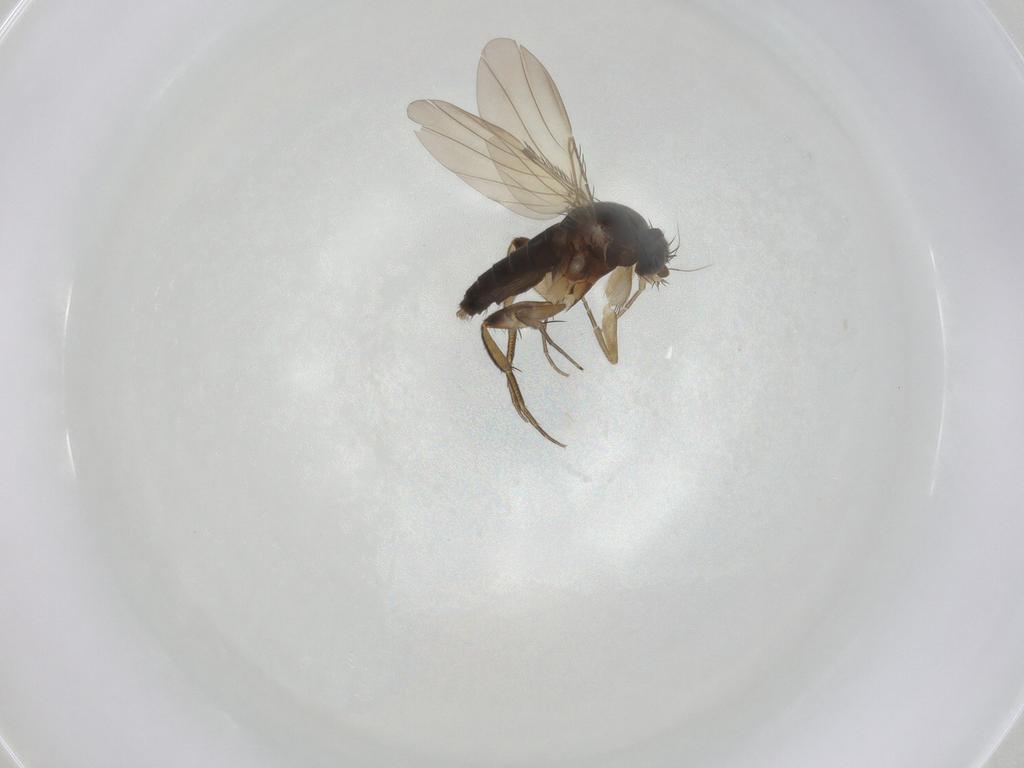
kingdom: Animalia
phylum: Arthropoda
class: Insecta
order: Diptera
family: Phoridae
